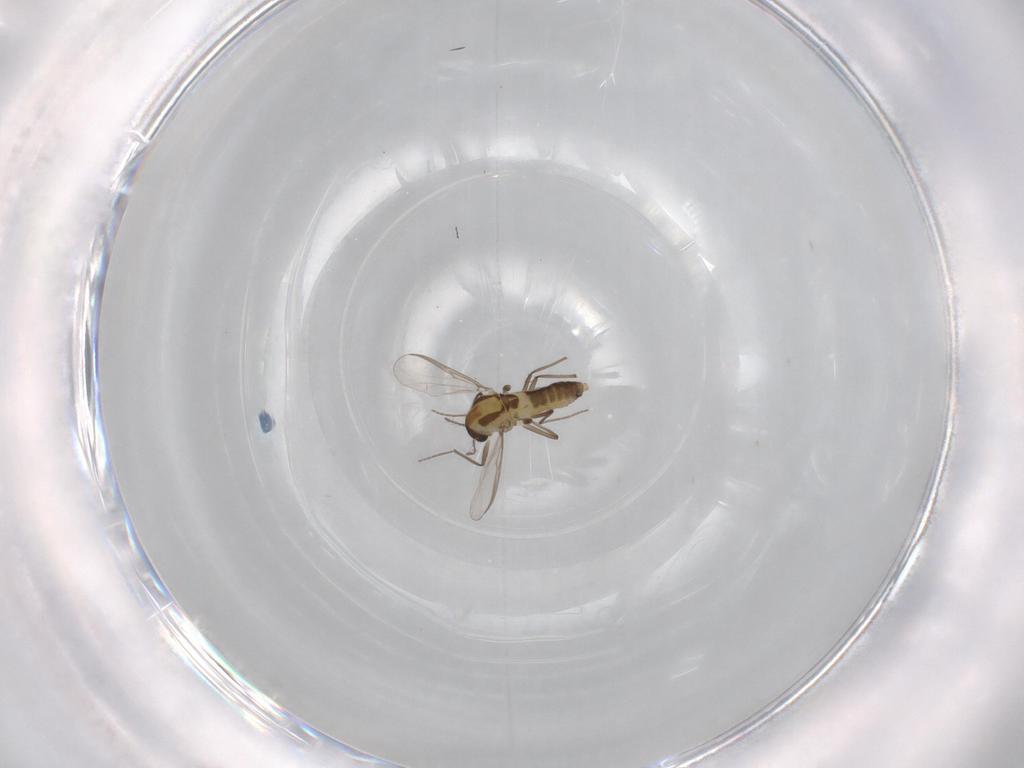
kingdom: Animalia
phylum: Arthropoda
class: Insecta
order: Diptera
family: Chironomidae
